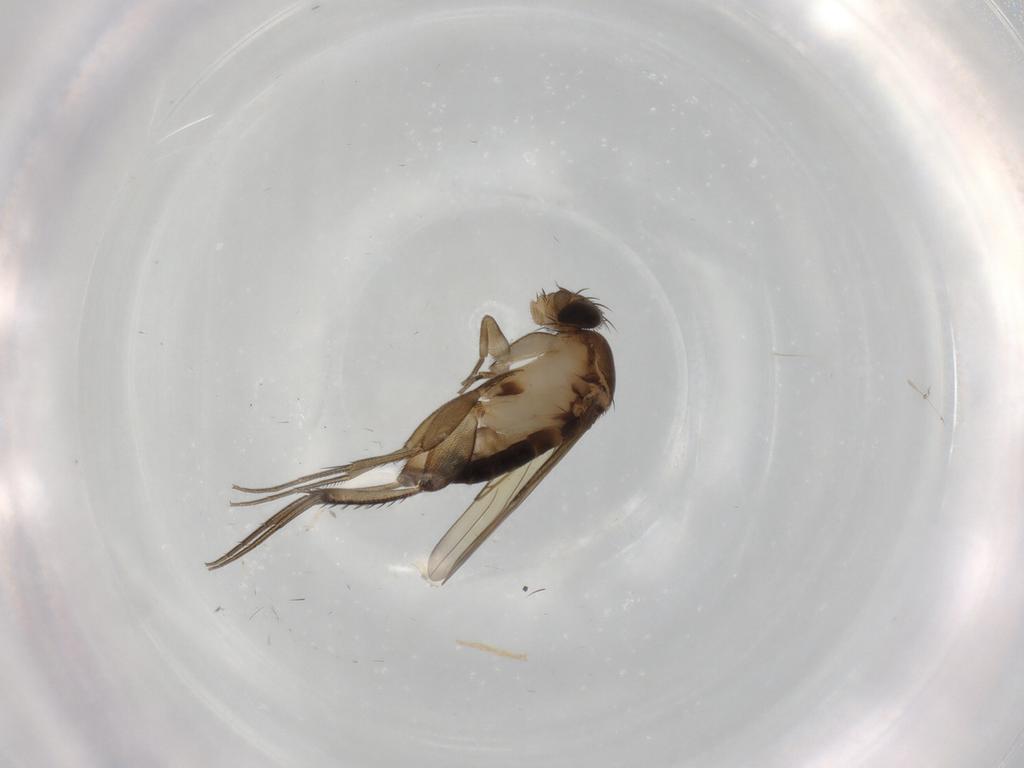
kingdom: Animalia
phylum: Arthropoda
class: Insecta
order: Diptera
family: Phoridae
